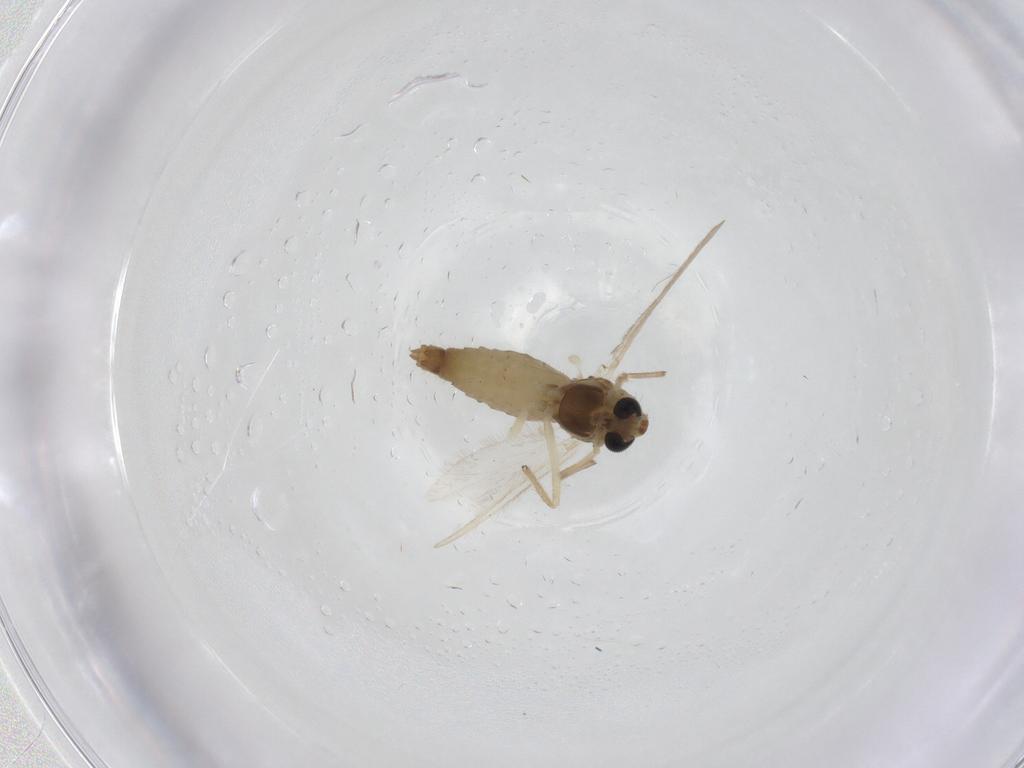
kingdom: Animalia
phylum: Arthropoda
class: Insecta
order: Diptera
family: Chironomidae
